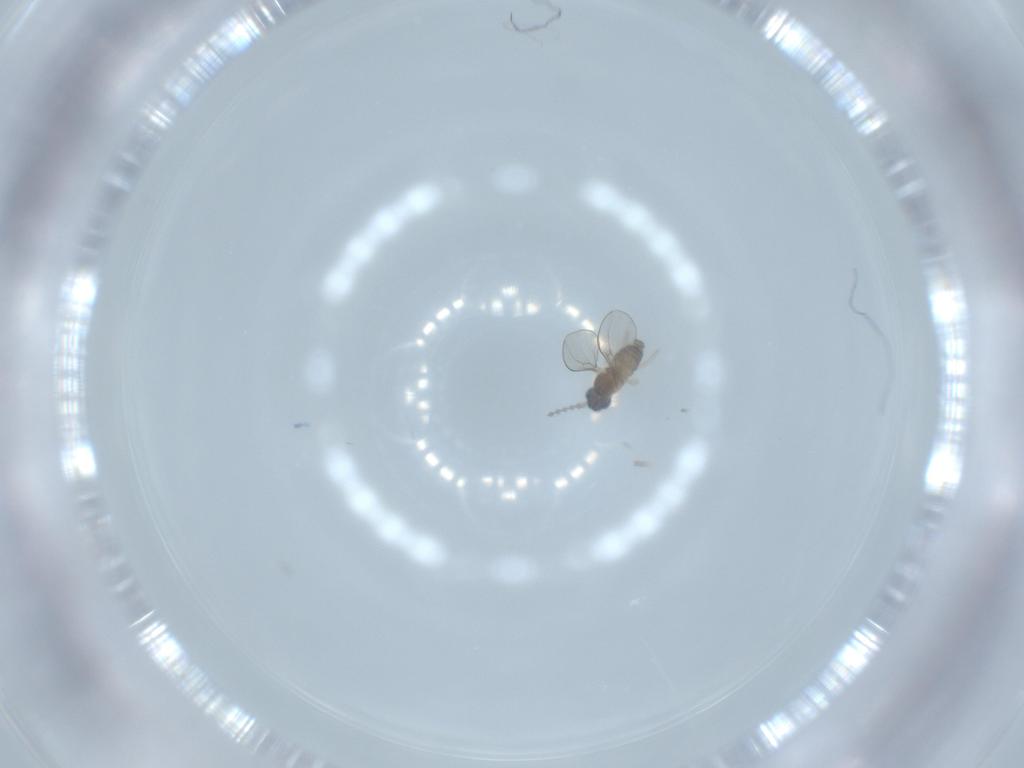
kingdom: Animalia
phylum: Arthropoda
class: Insecta
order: Diptera
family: Cecidomyiidae
